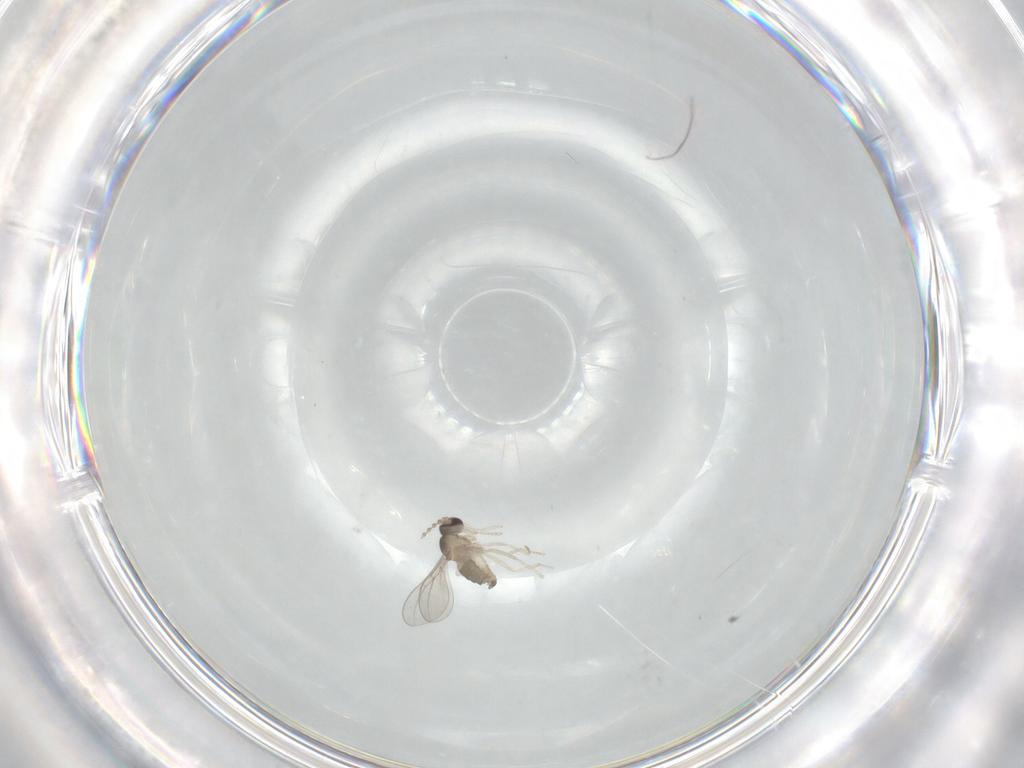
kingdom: Animalia
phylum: Arthropoda
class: Insecta
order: Diptera
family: Cecidomyiidae
